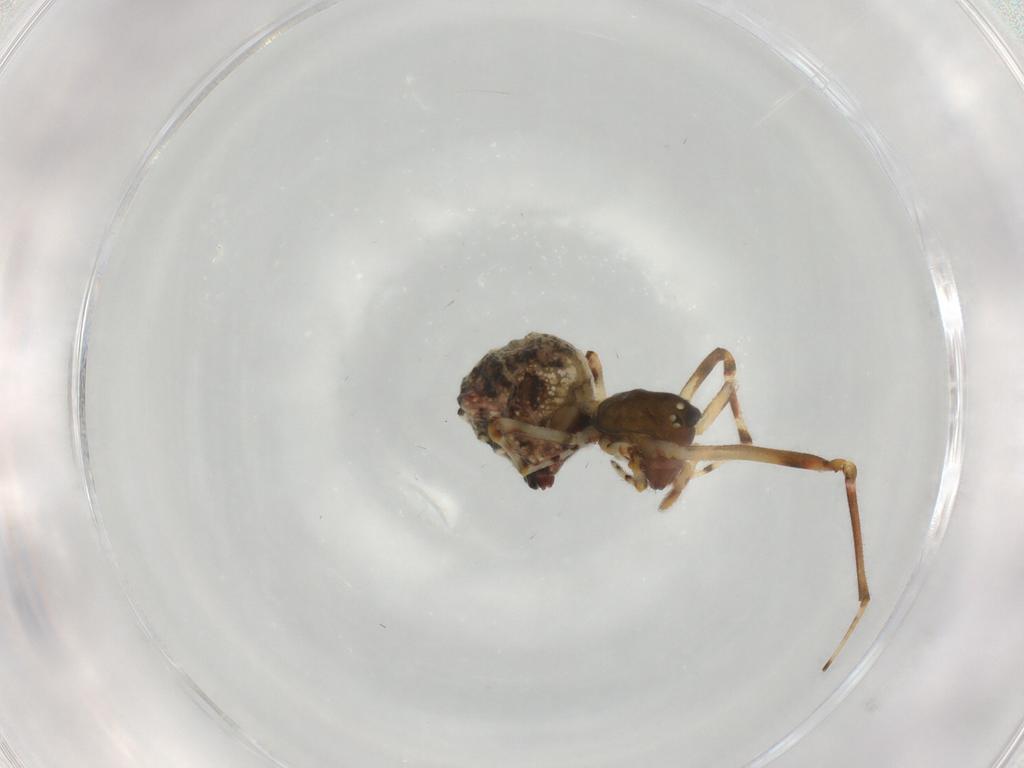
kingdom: Animalia
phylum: Arthropoda
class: Arachnida
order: Araneae
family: Theridiidae
